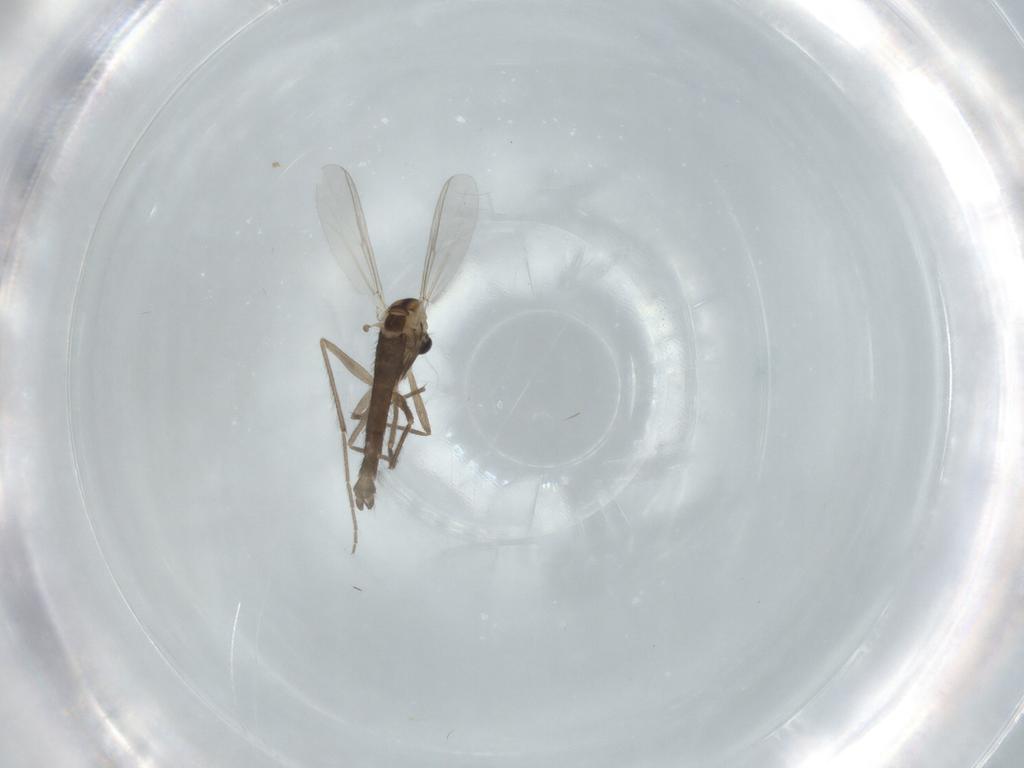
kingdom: Animalia
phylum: Arthropoda
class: Insecta
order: Diptera
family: Chironomidae
